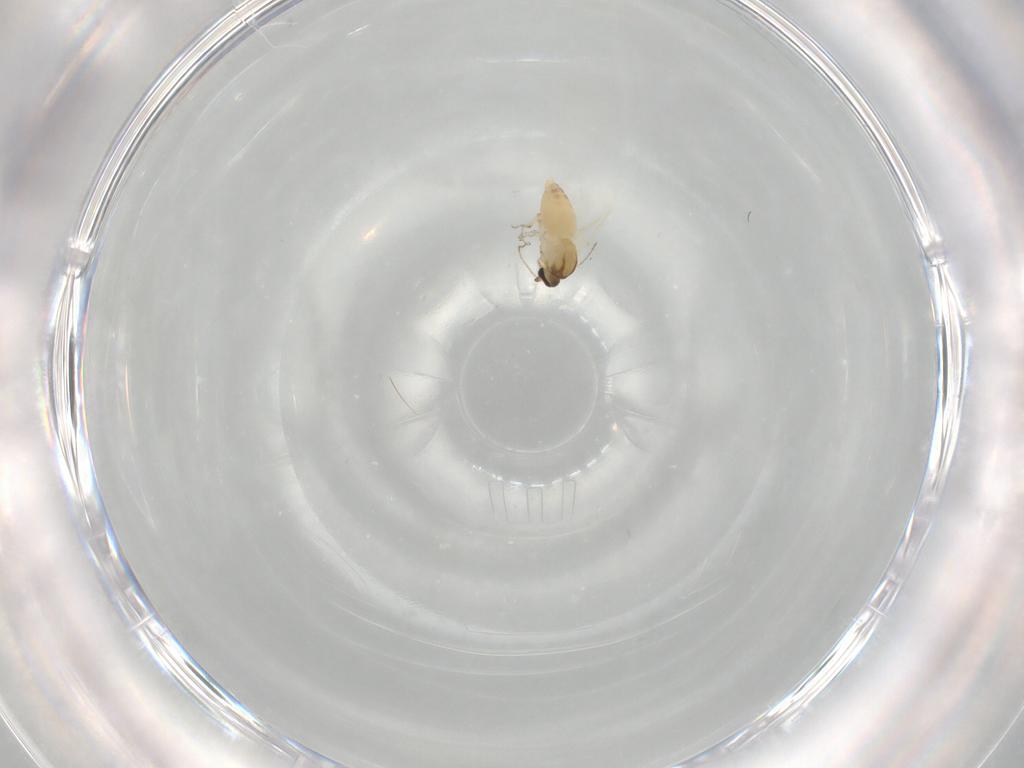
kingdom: Animalia
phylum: Arthropoda
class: Insecta
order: Diptera
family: Ceratopogonidae
